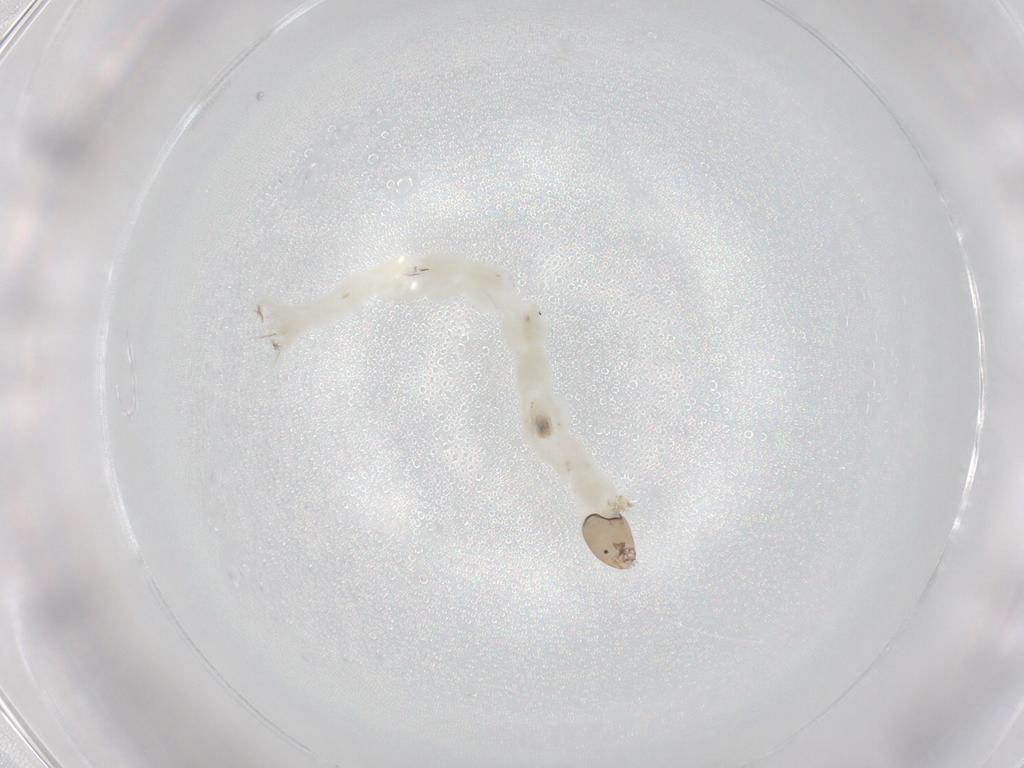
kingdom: Animalia
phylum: Arthropoda
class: Insecta
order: Diptera
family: Chironomidae
